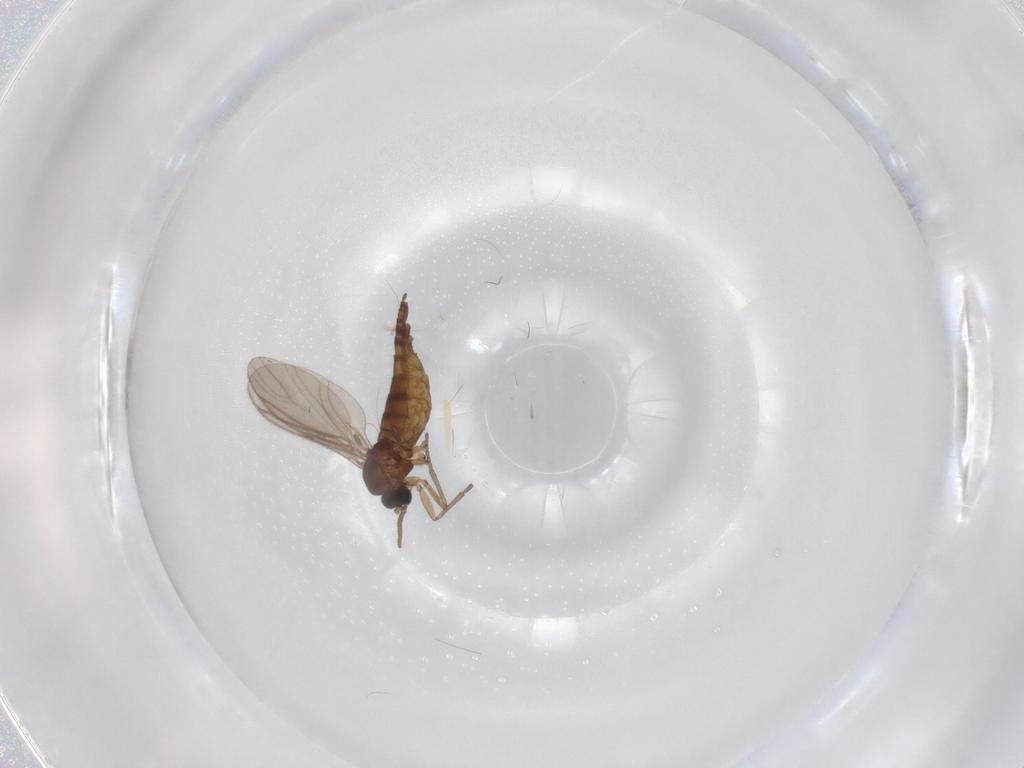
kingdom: Animalia
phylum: Arthropoda
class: Insecta
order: Diptera
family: Sciaridae
